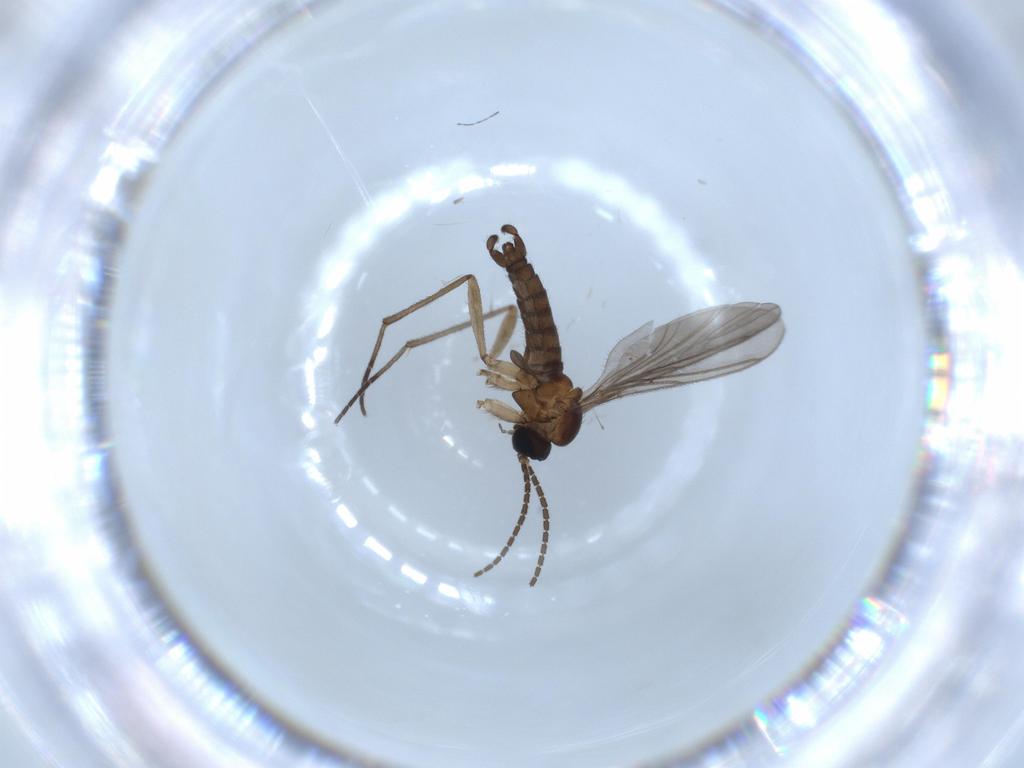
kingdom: Animalia
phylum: Arthropoda
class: Insecta
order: Diptera
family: Sciaridae
